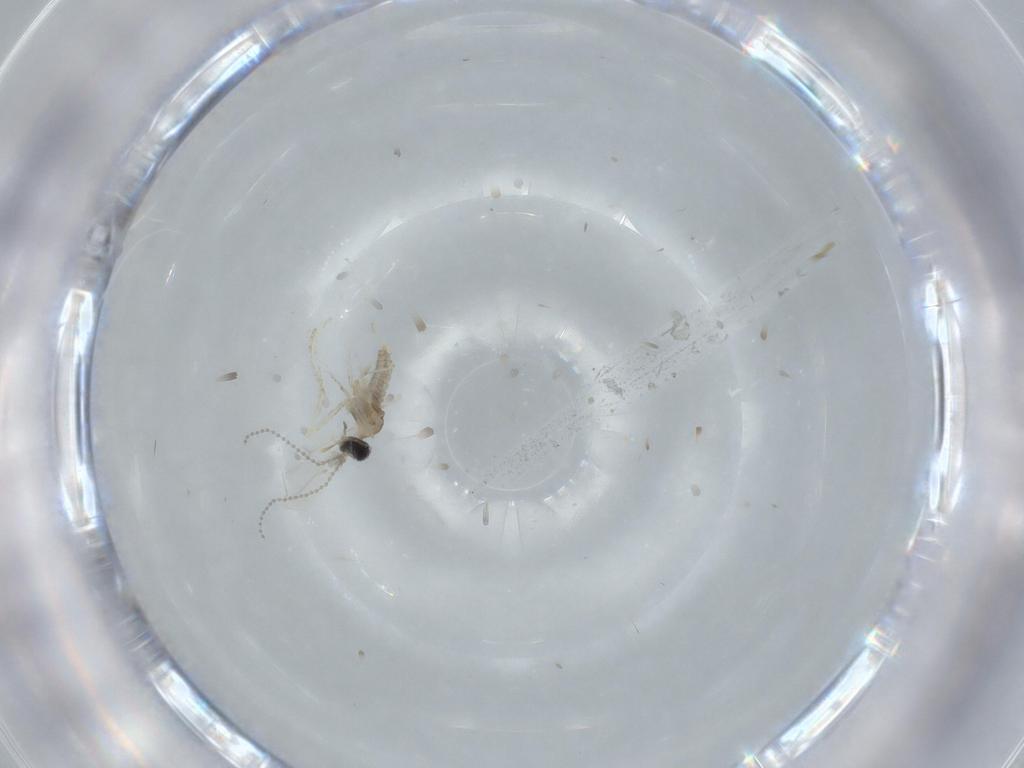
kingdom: Animalia
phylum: Arthropoda
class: Insecta
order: Diptera
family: Cecidomyiidae
